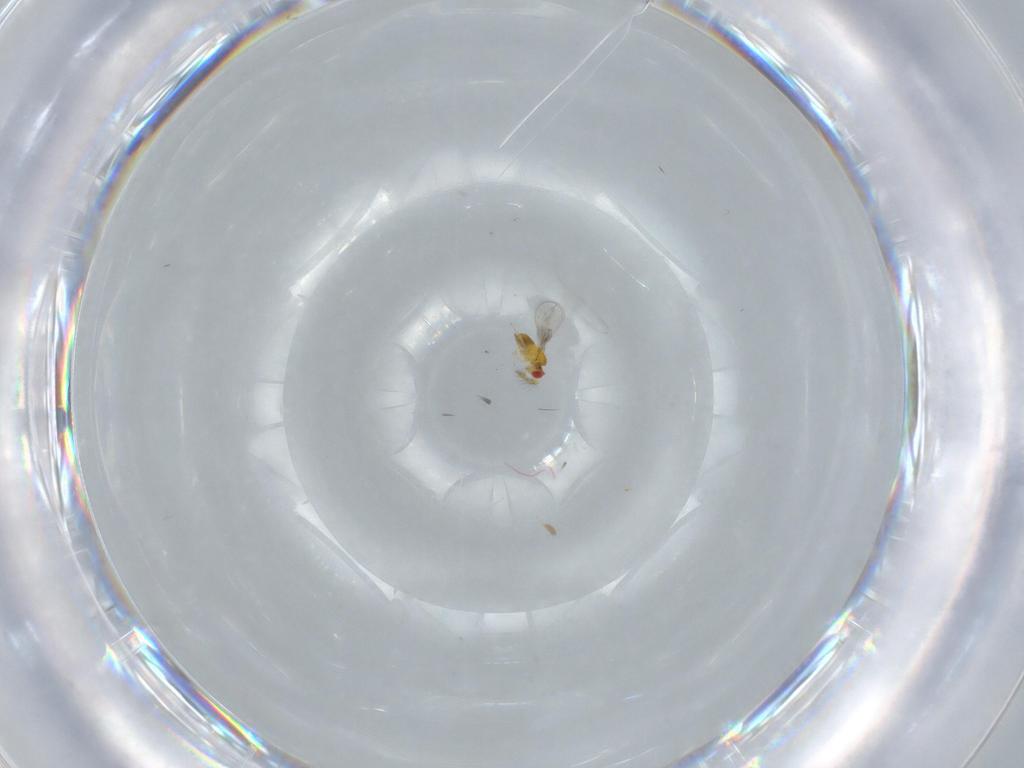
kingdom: Animalia
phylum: Arthropoda
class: Insecta
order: Hymenoptera
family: Trichogrammatidae
